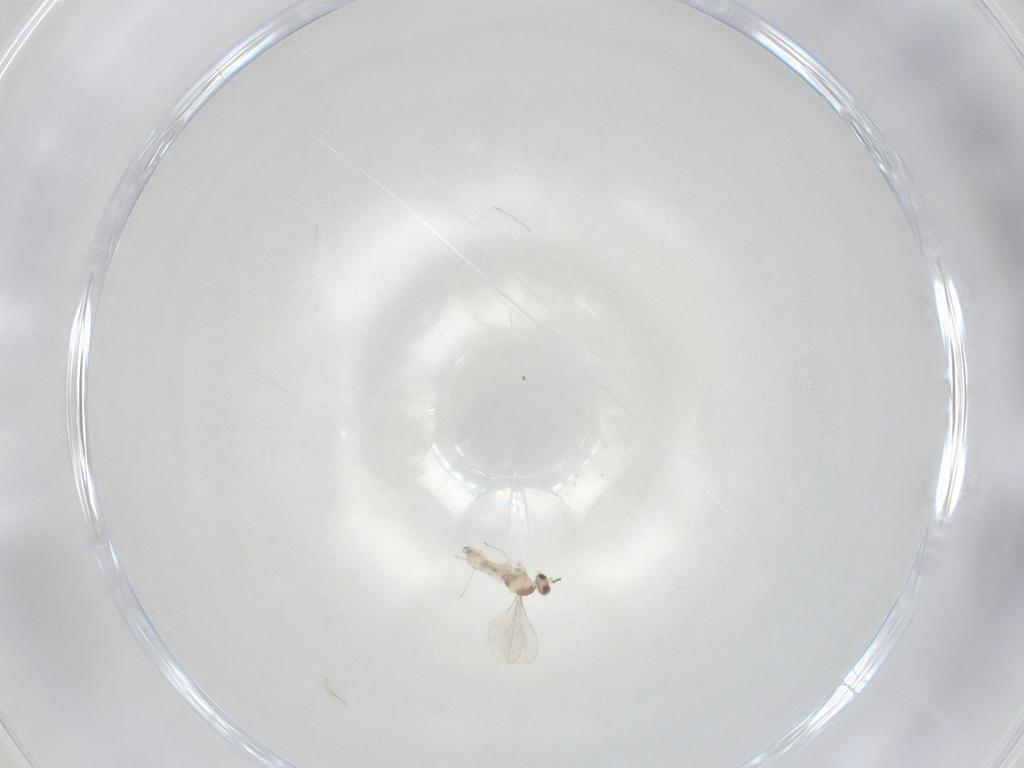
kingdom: Animalia
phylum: Arthropoda
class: Insecta
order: Diptera
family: Cecidomyiidae
